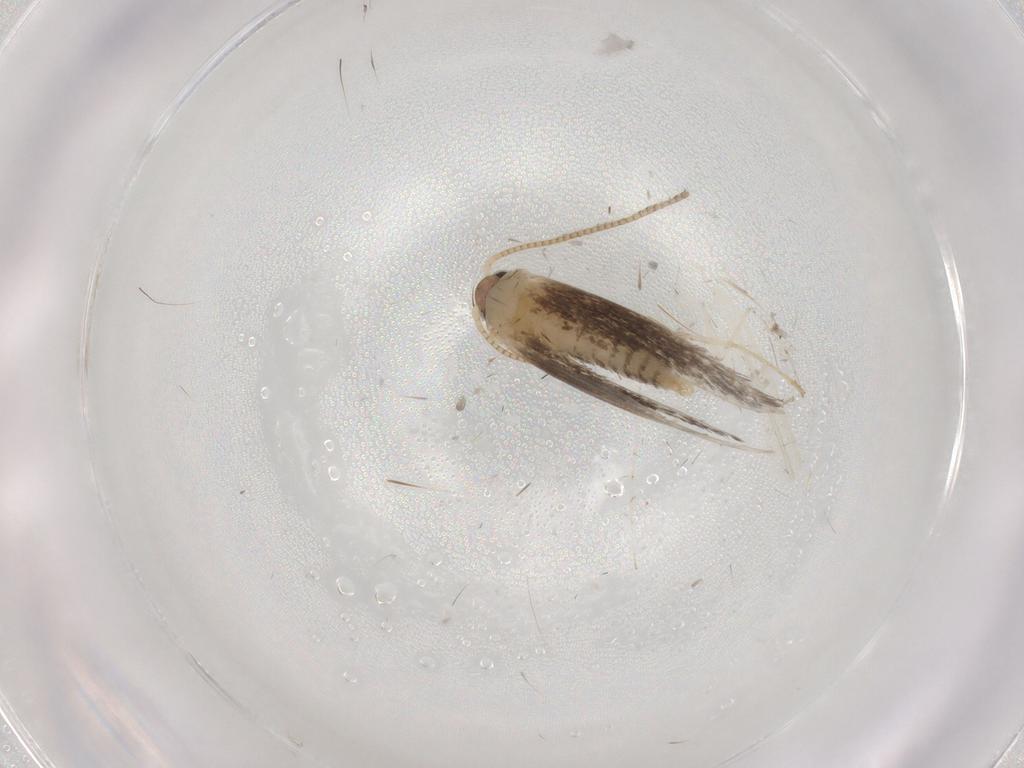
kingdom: Animalia
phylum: Arthropoda
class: Insecta
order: Lepidoptera
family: Tineidae
